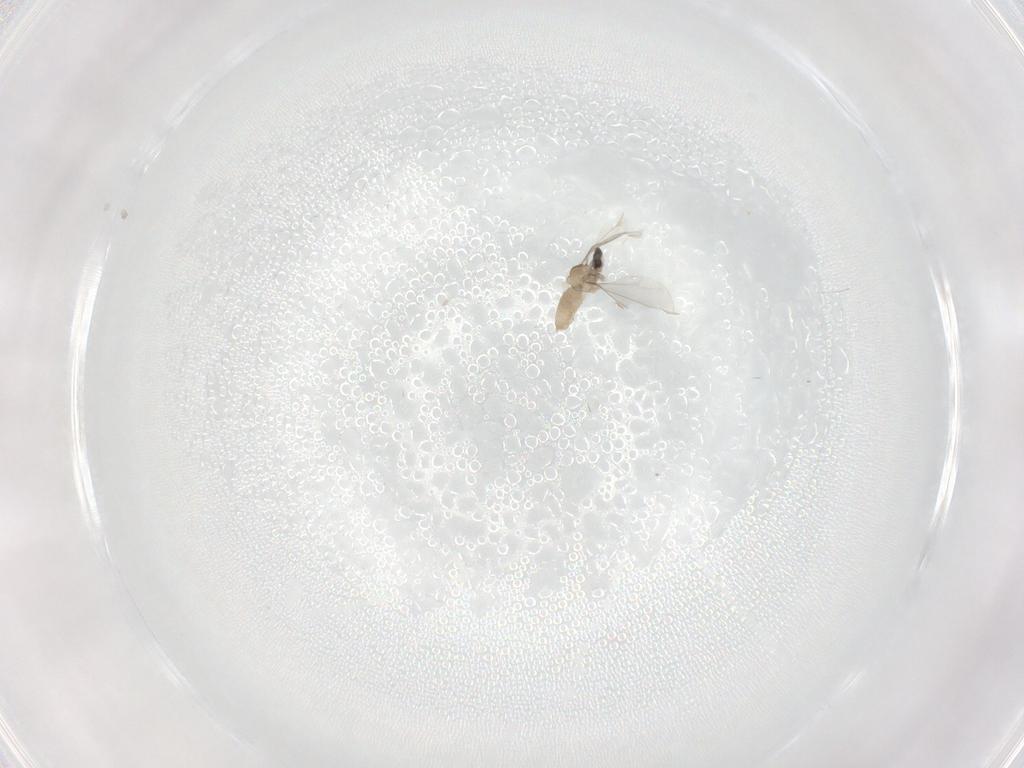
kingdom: Animalia
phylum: Arthropoda
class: Insecta
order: Diptera
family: Cecidomyiidae
